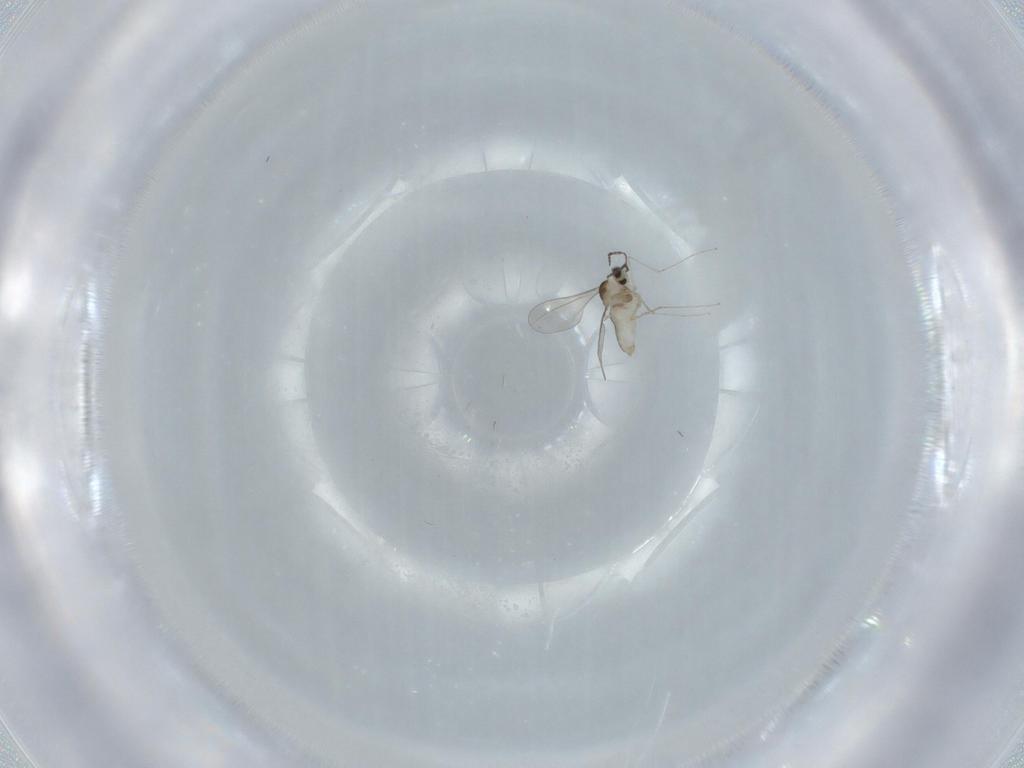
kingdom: Animalia
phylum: Arthropoda
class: Insecta
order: Diptera
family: Cecidomyiidae
